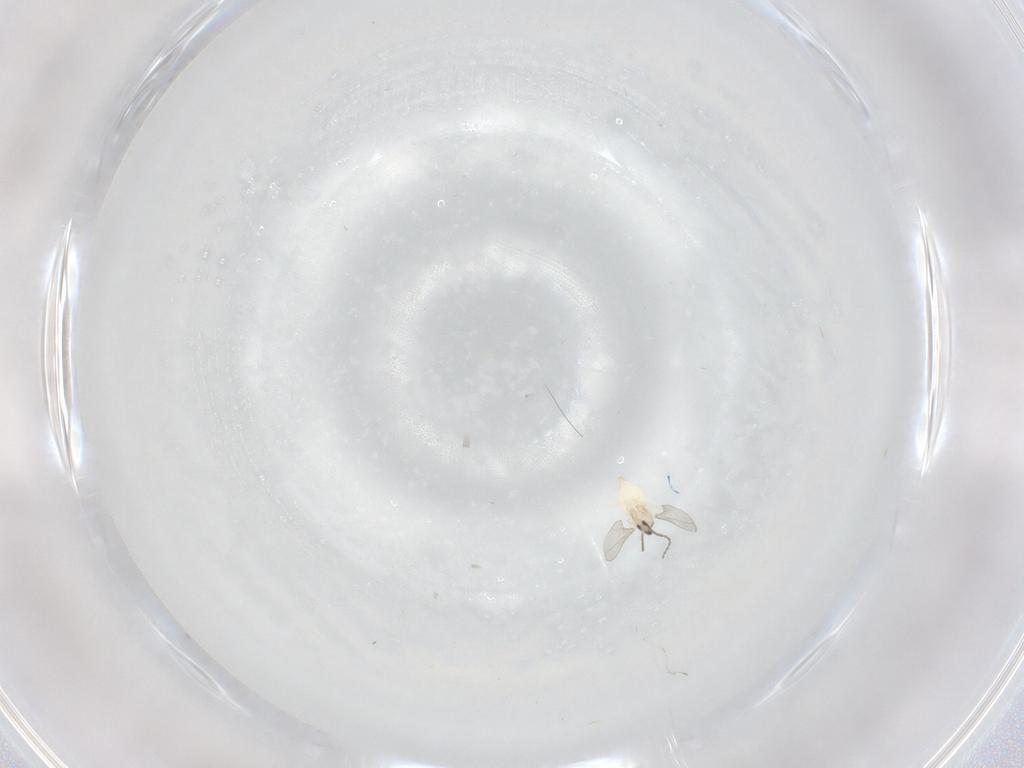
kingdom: Animalia
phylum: Arthropoda
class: Insecta
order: Diptera
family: Cecidomyiidae
